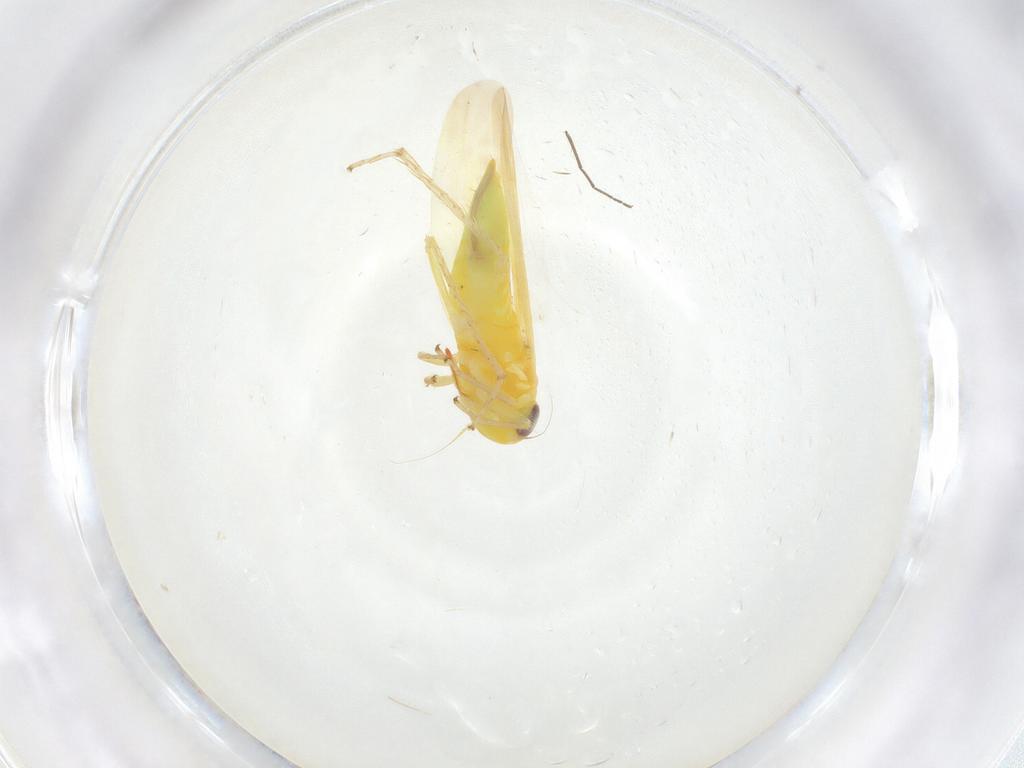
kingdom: Animalia
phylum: Arthropoda
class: Insecta
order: Hemiptera
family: Cicadellidae
